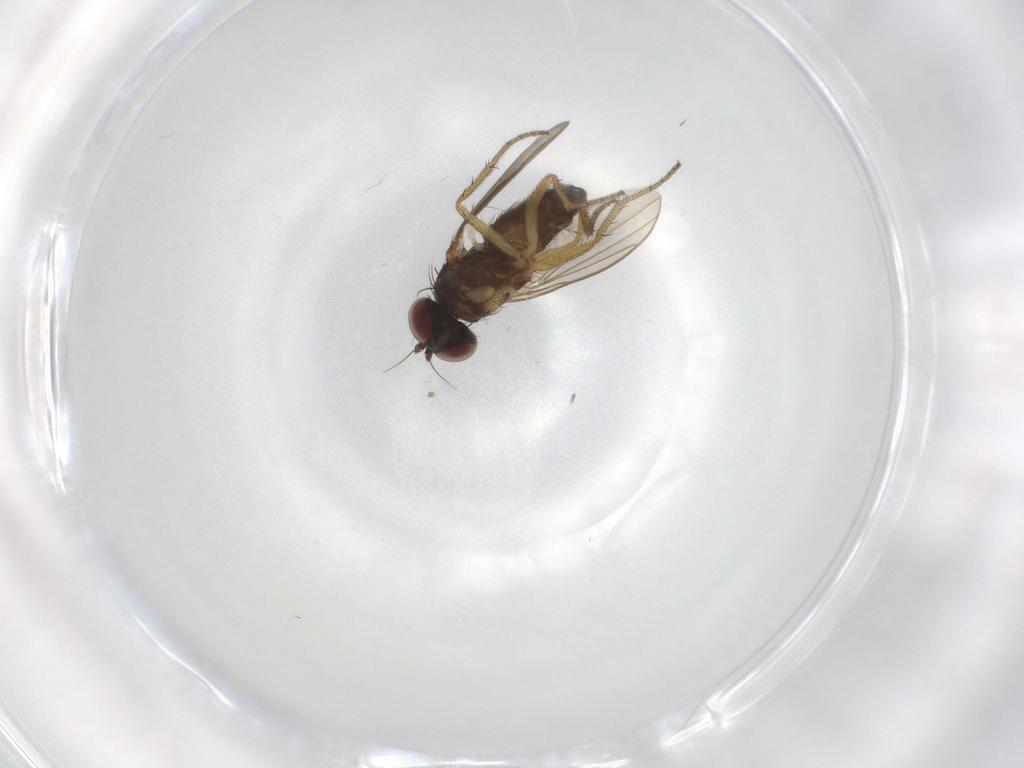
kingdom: Animalia
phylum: Arthropoda
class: Insecta
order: Diptera
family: Dolichopodidae
